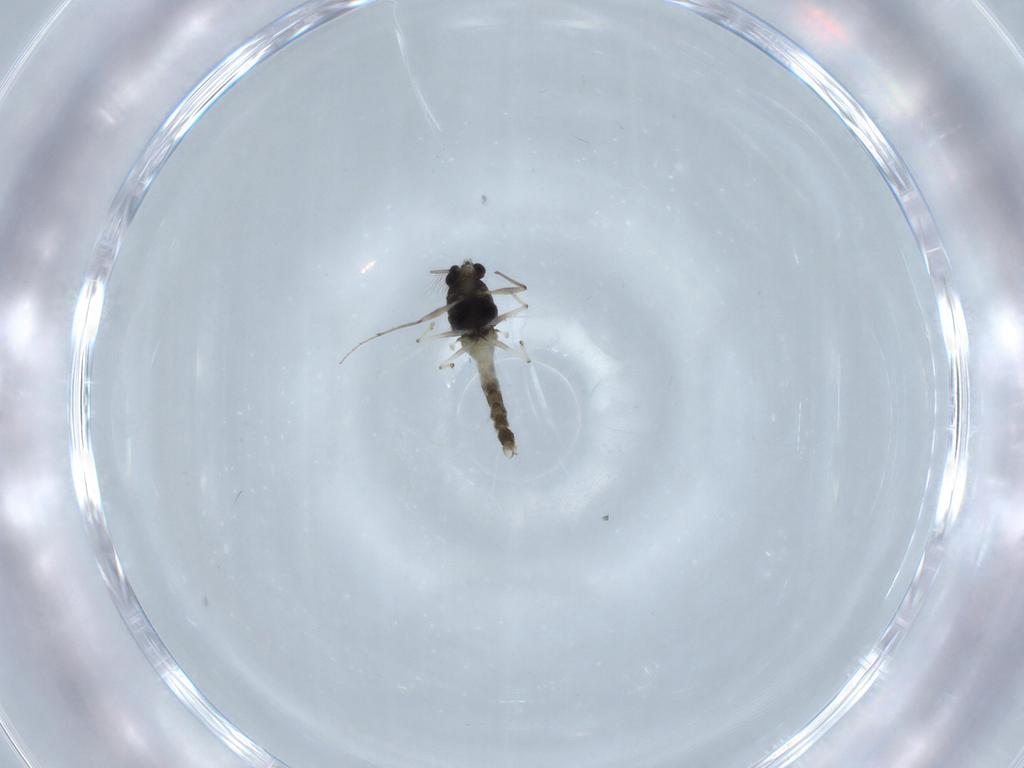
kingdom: Animalia
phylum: Arthropoda
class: Insecta
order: Diptera
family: Chironomidae
